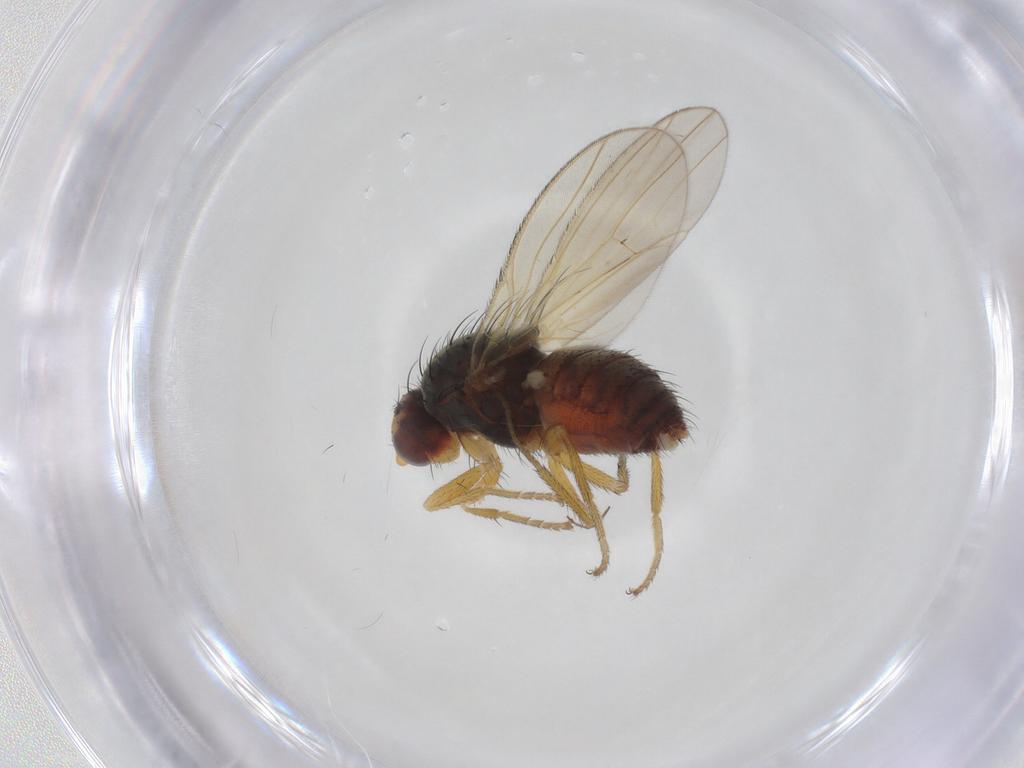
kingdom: Animalia
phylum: Arthropoda
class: Insecta
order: Diptera
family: Heleomyzidae
